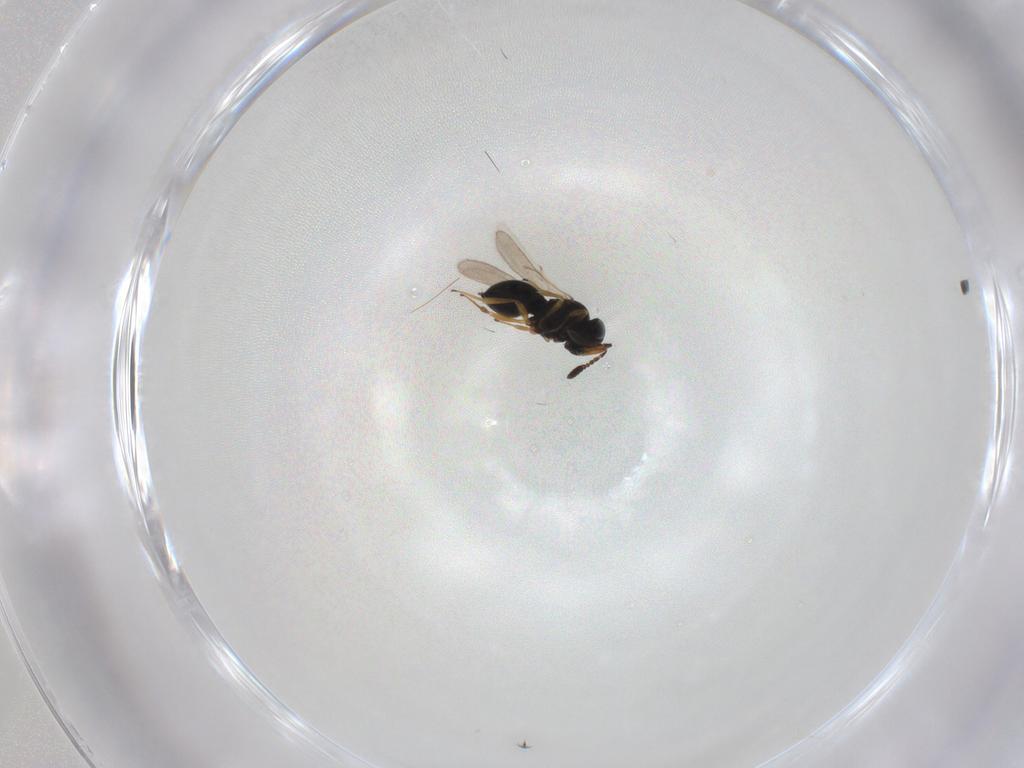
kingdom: Animalia
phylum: Arthropoda
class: Insecta
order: Hymenoptera
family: Scelionidae
